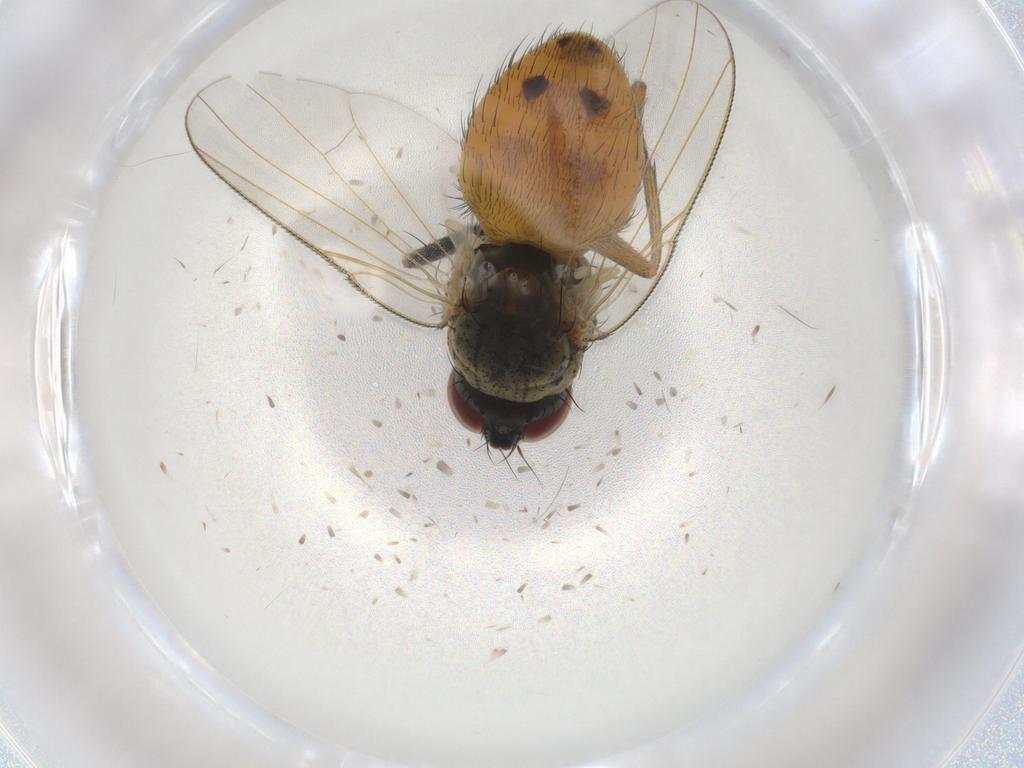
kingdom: Animalia
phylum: Arthropoda
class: Insecta
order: Diptera
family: Muscidae
